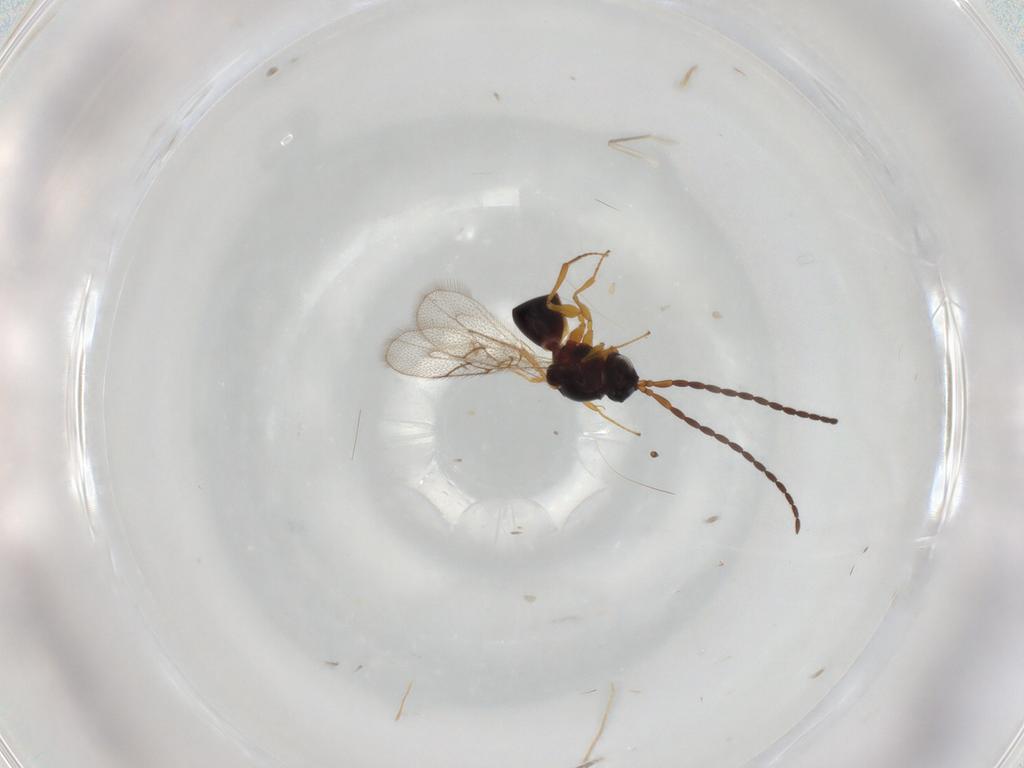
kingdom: Animalia
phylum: Arthropoda
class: Insecta
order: Hymenoptera
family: Figitidae
